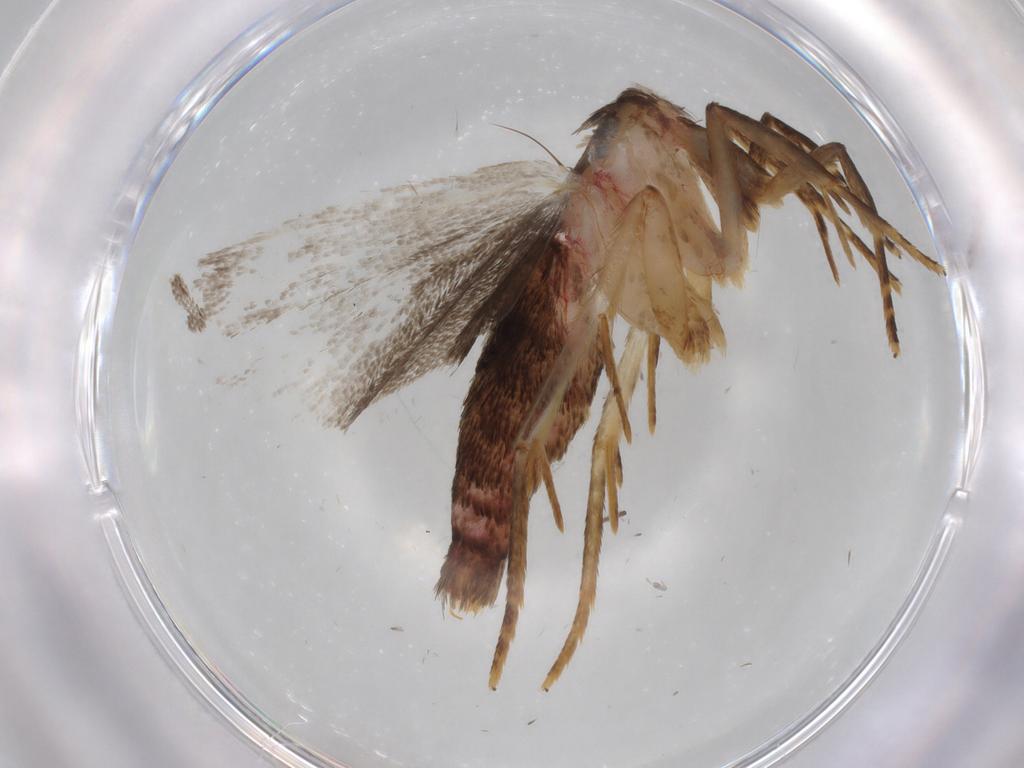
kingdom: Animalia
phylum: Arthropoda
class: Insecta
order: Lepidoptera
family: Autostichidae
